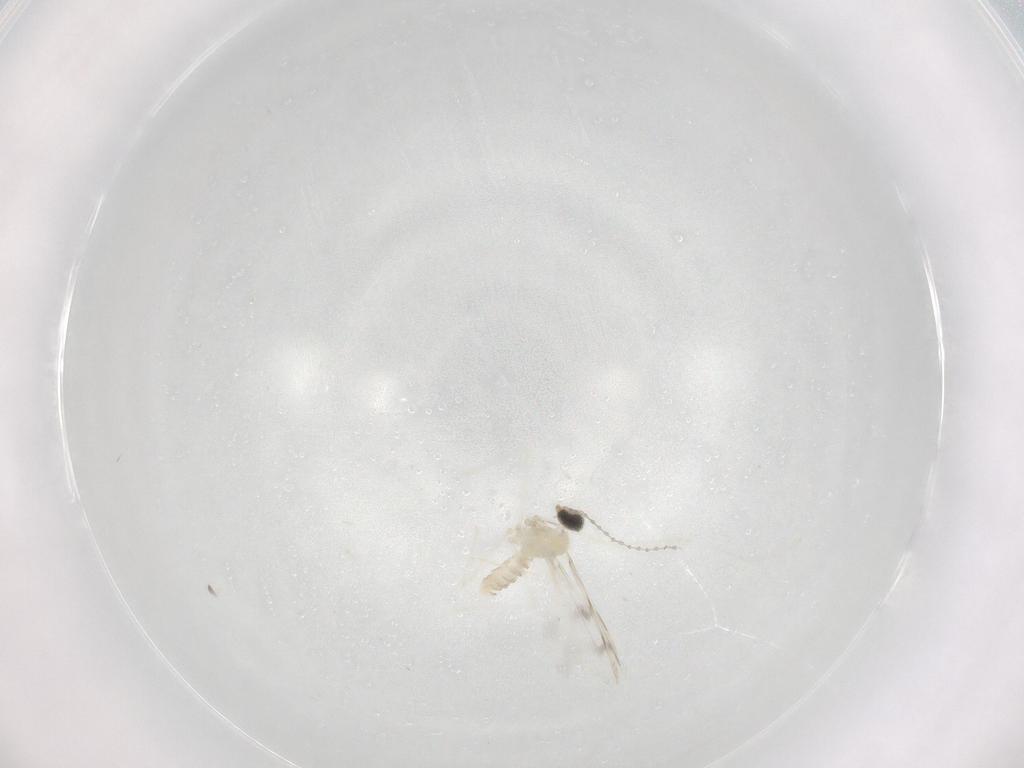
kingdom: Animalia
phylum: Arthropoda
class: Insecta
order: Diptera
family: Cecidomyiidae
